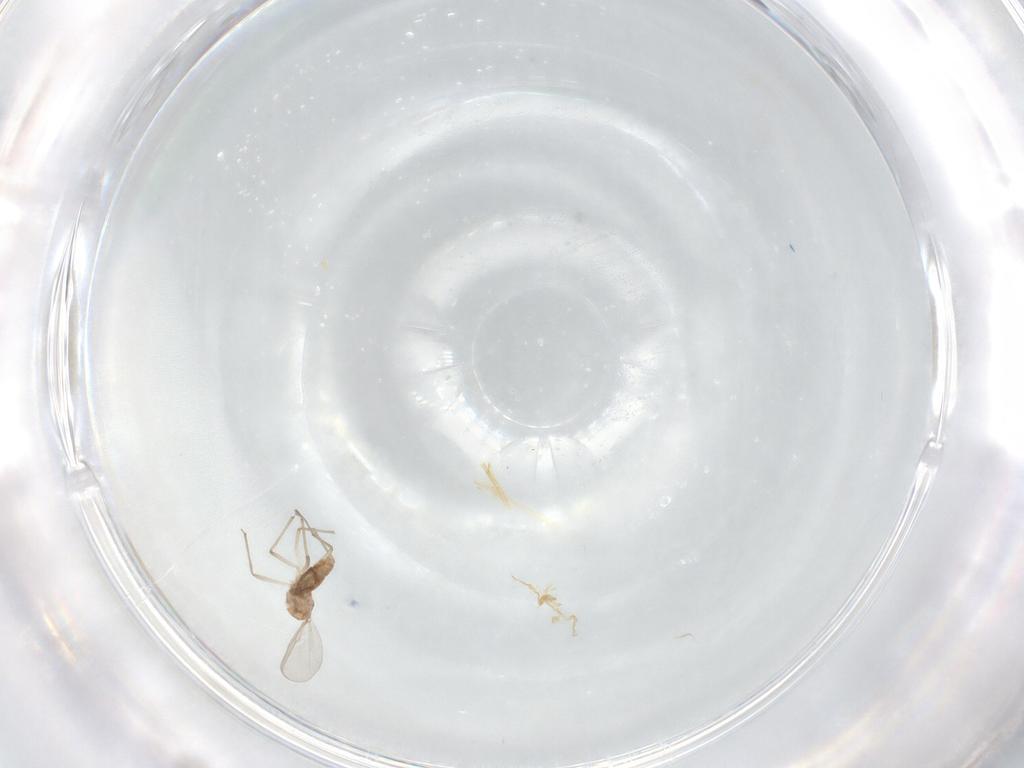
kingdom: Animalia
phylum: Arthropoda
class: Insecta
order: Diptera
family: Chironomidae
